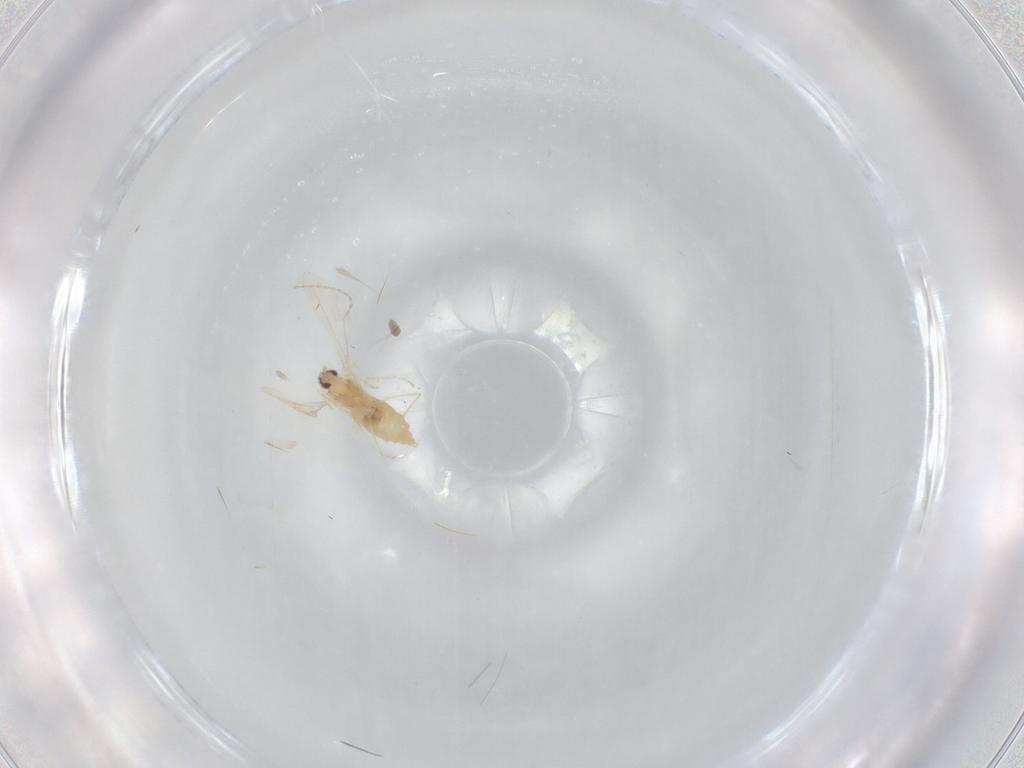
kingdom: Animalia
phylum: Arthropoda
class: Insecta
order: Diptera
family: Cecidomyiidae
